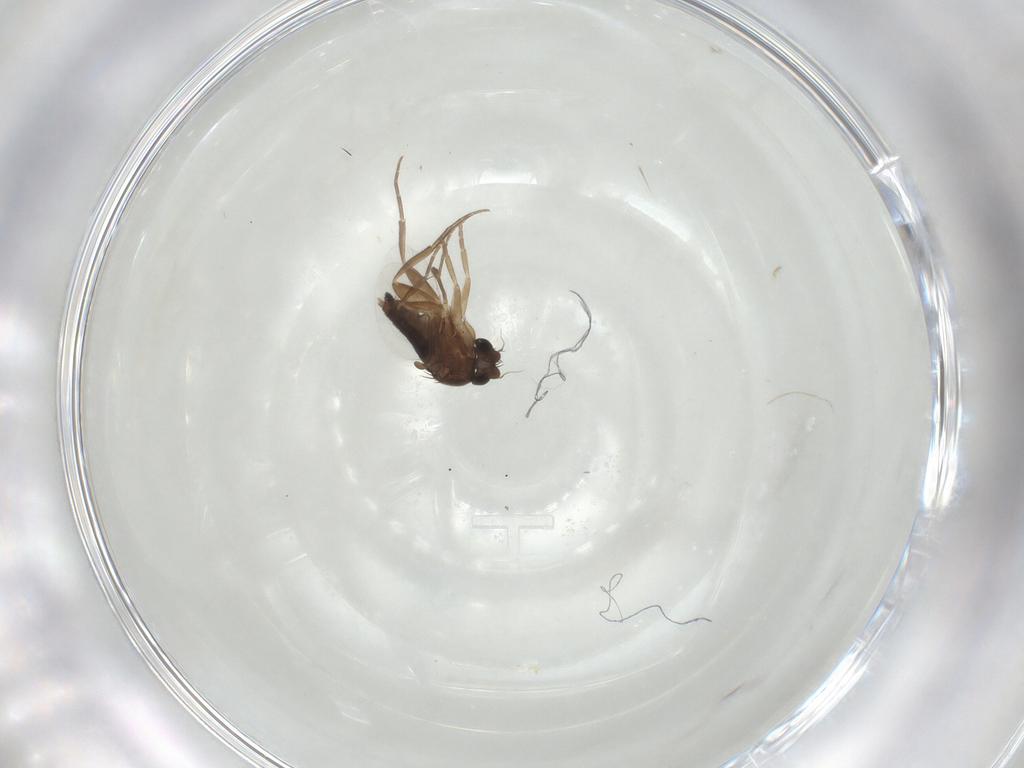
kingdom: Animalia
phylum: Arthropoda
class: Insecta
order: Diptera
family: Phoridae
